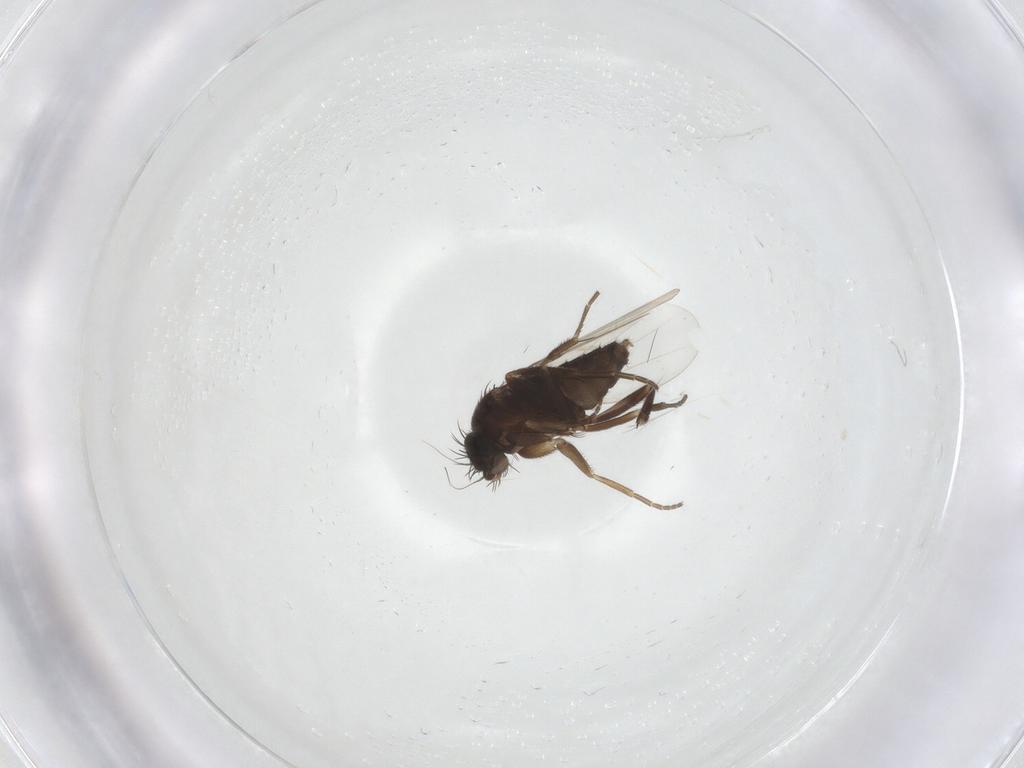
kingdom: Animalia
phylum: Arthropoda
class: Insecta
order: Diptera
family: Phoridae
